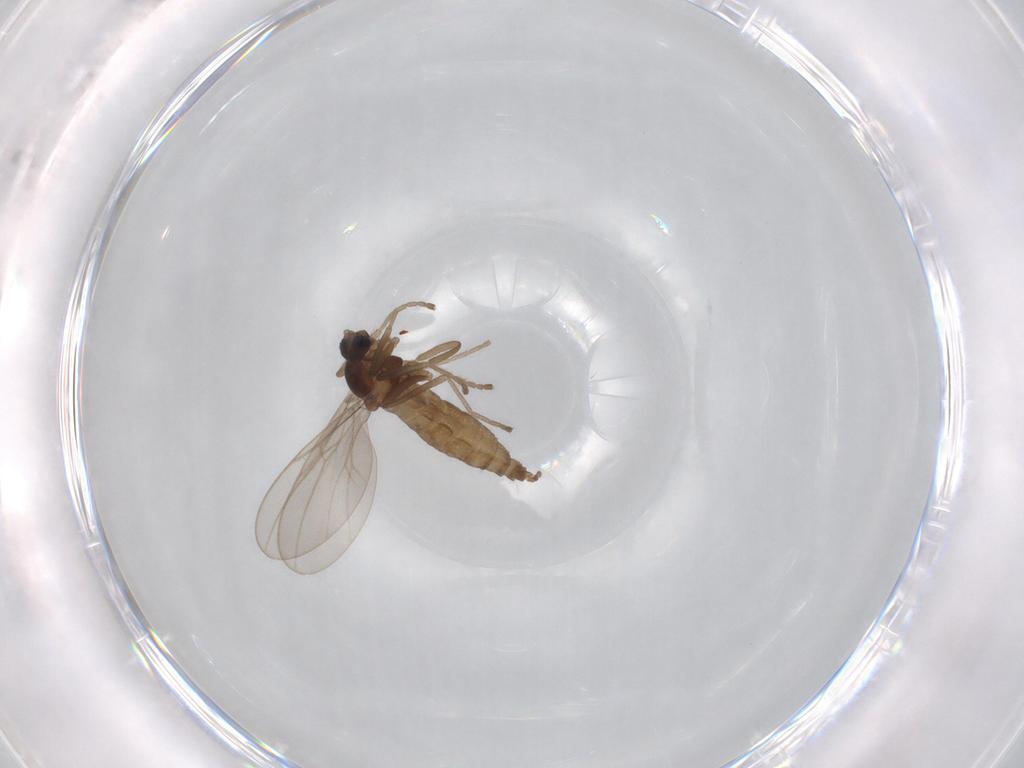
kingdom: Animalia
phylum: Arthropoda
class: Insecta
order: Diptera
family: Cecidomyiidae
